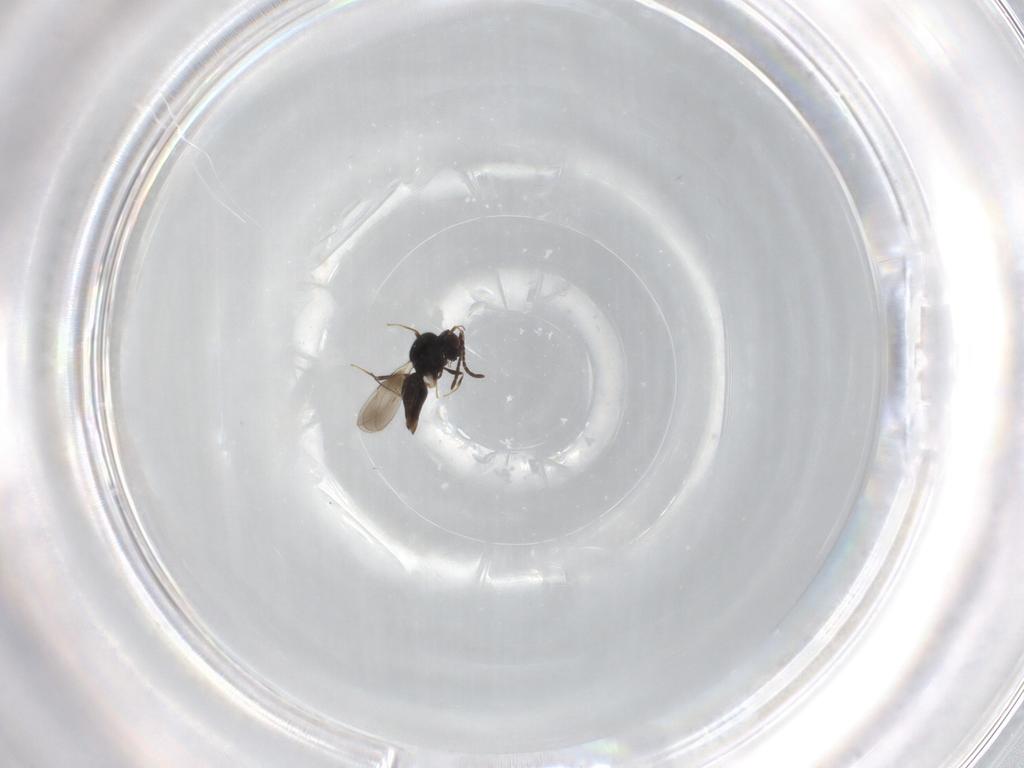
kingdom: Animalia
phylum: Arthropoda
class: Insecta
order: Hymenoptera
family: Ceraphronidae
